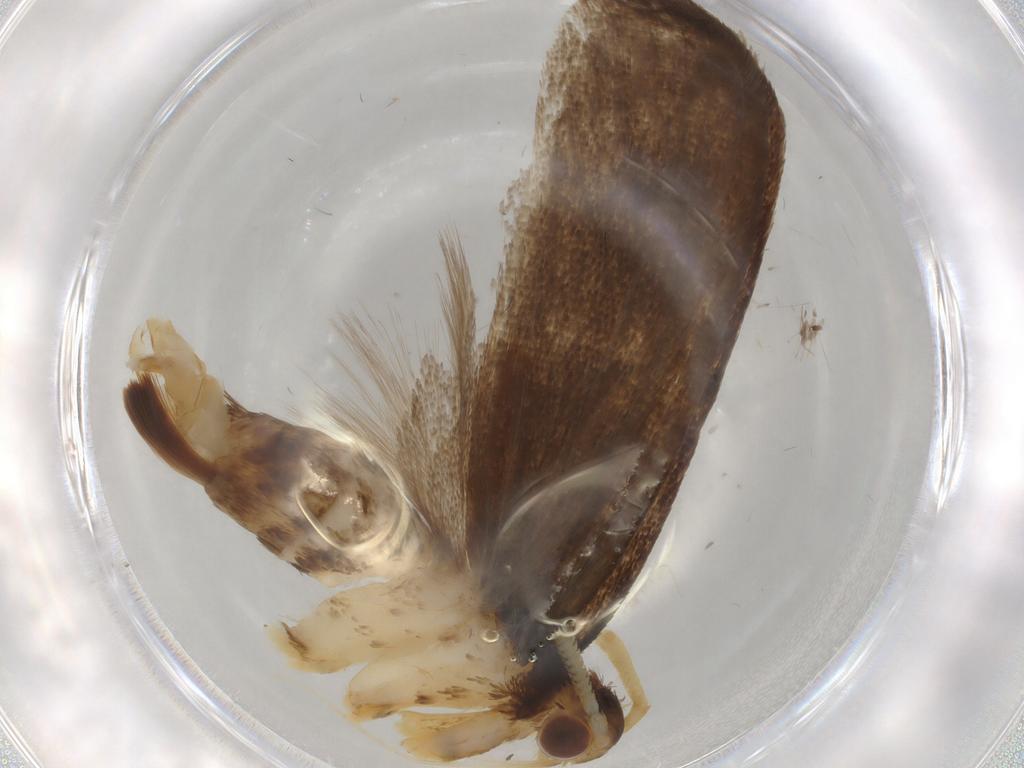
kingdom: Animalia
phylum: Arthropoda
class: Insecta
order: Lepidoptera
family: Lecithoceridae
